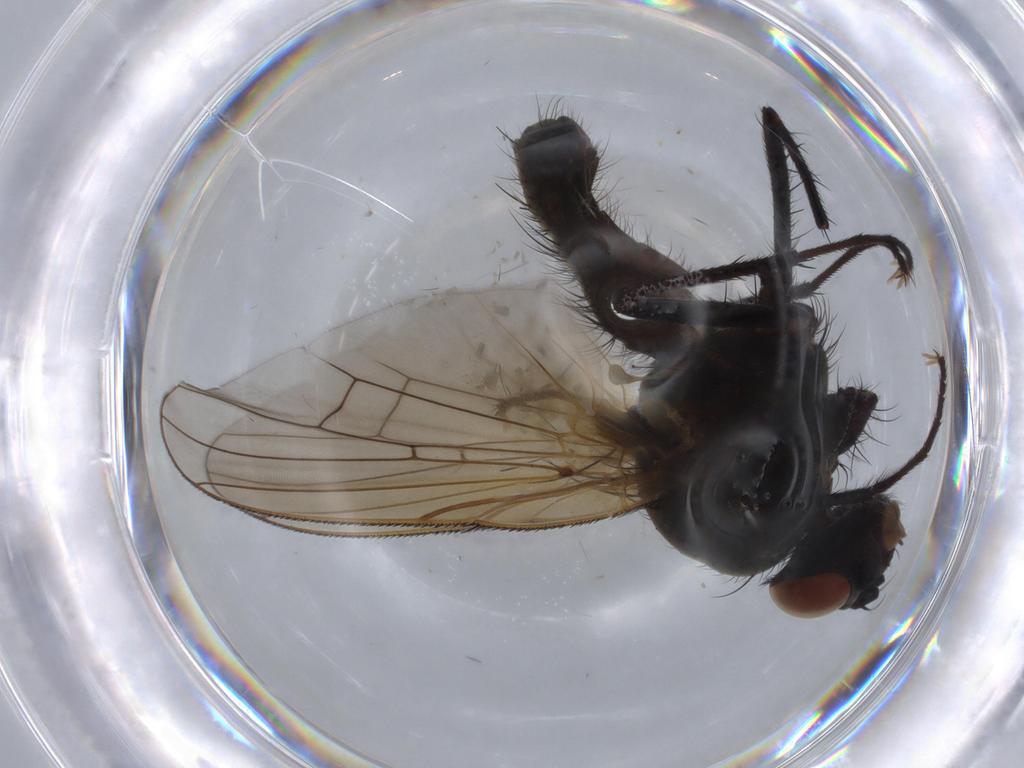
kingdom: Animalia
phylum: Arthropoda
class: Insecta
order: Diptera
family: Anthomyiidae
